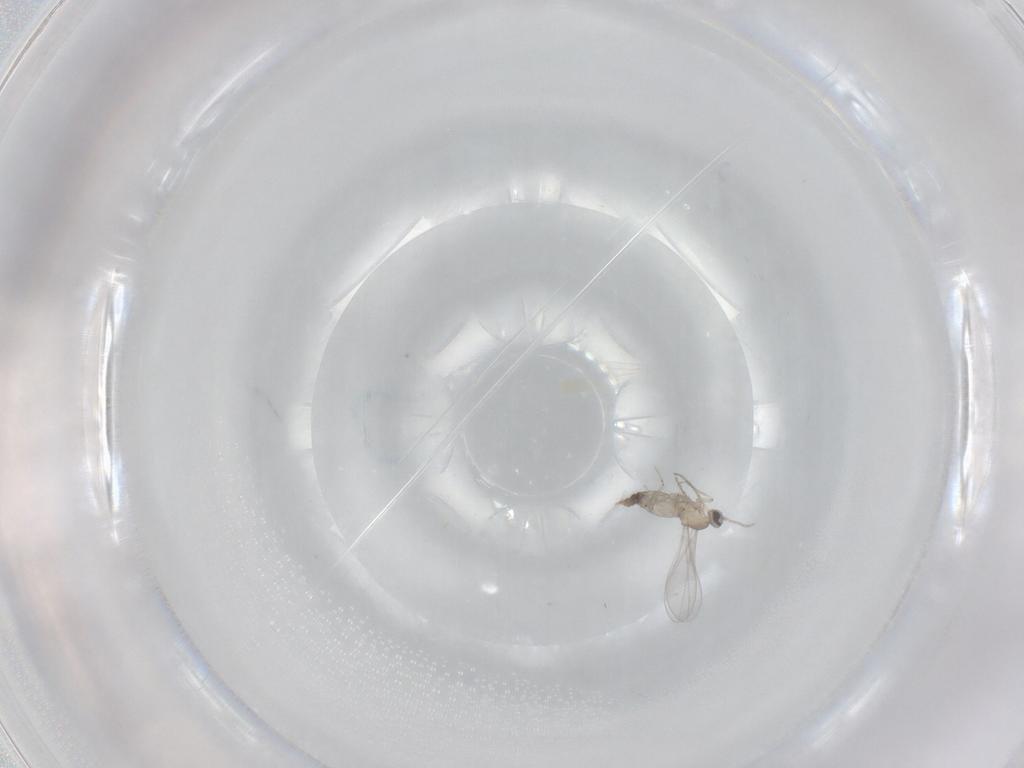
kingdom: Animalia
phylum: Arthropoda
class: Insecta
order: Diptera
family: Cecidomyiidae
